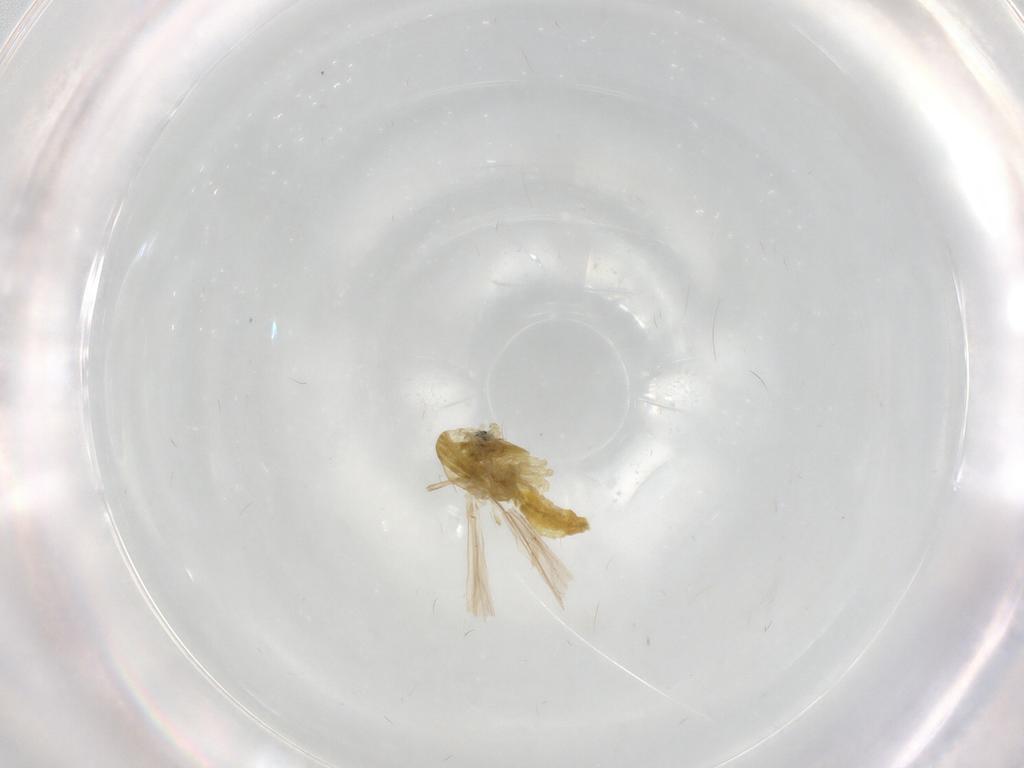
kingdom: Animalia
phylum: Arthropoda
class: Insecta
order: Diptera
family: Chironomidae
